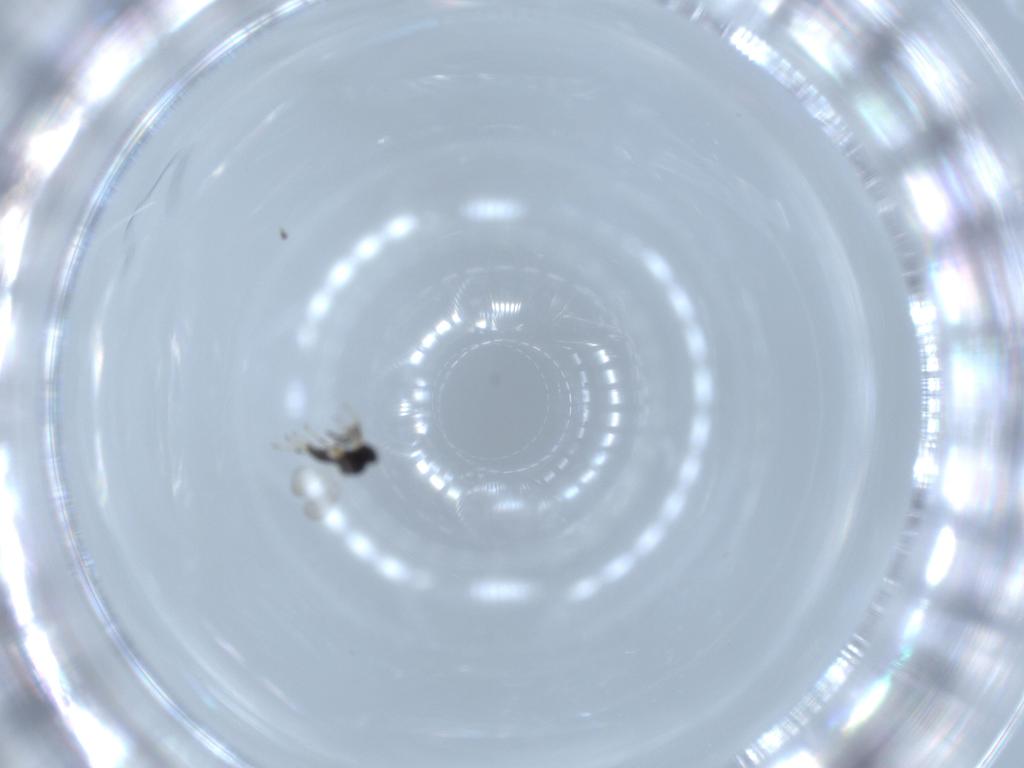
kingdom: Animalia
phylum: Arthropoda
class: Insecta
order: Hymenoptera
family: Platygastridae
